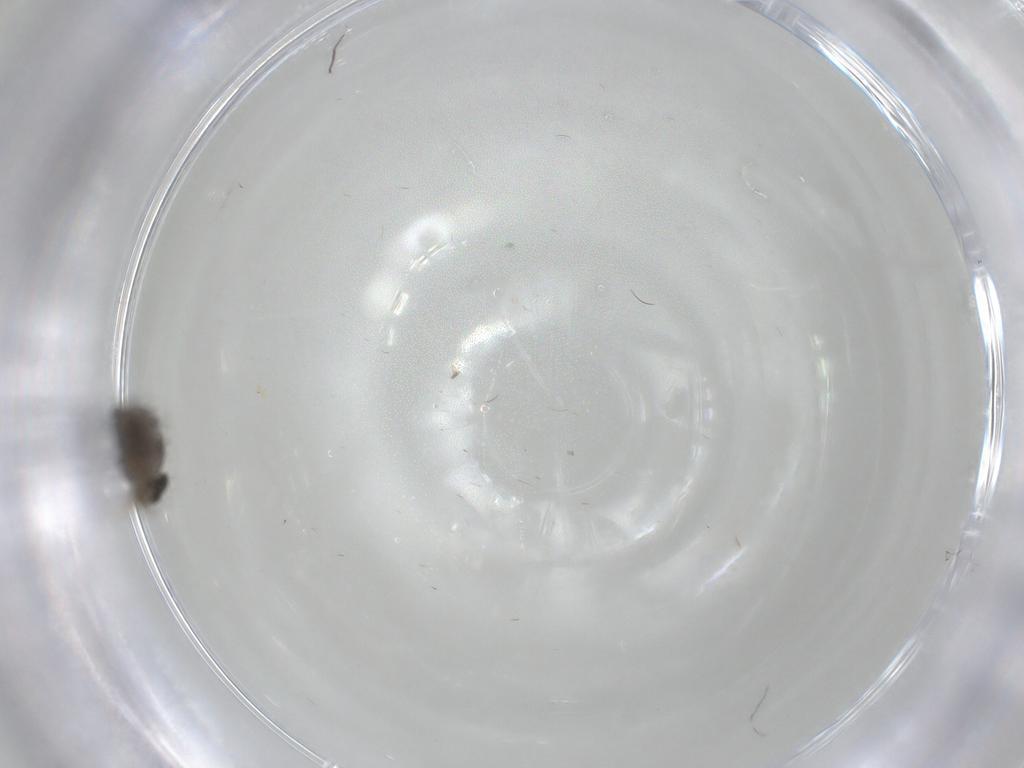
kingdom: Animalia
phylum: Arthropoda
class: Insecta
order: Diptera
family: Phoridae
